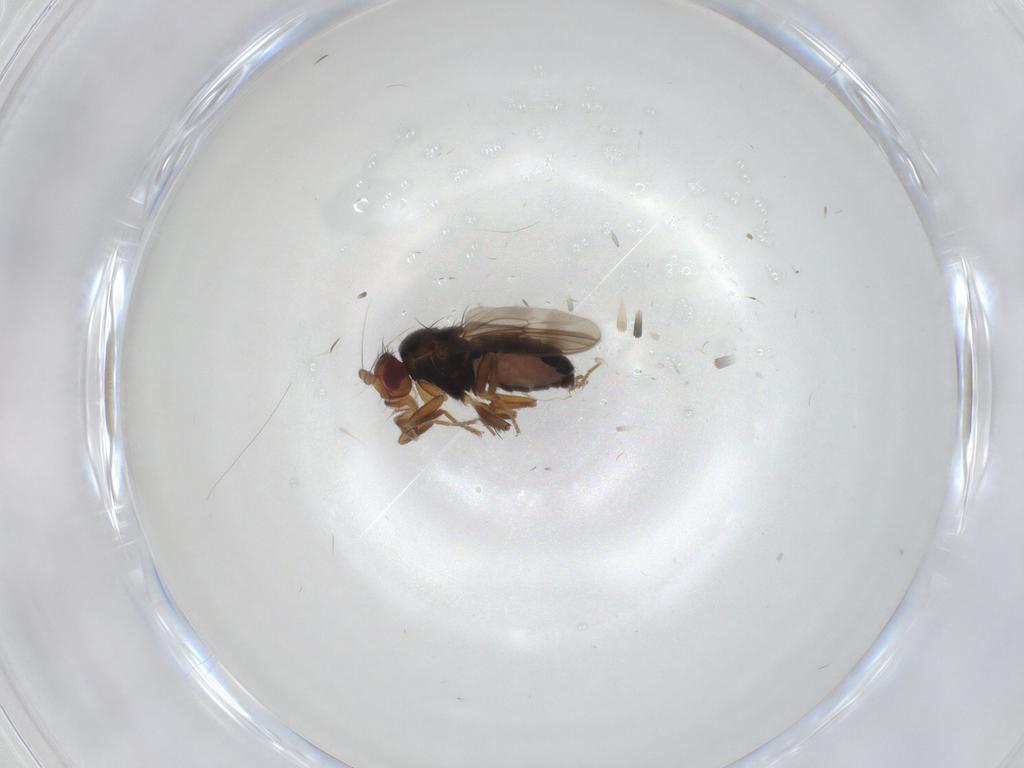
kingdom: Animalia
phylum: Arthropoda
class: Insecta
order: Diptera
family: Sphaeroceridae
